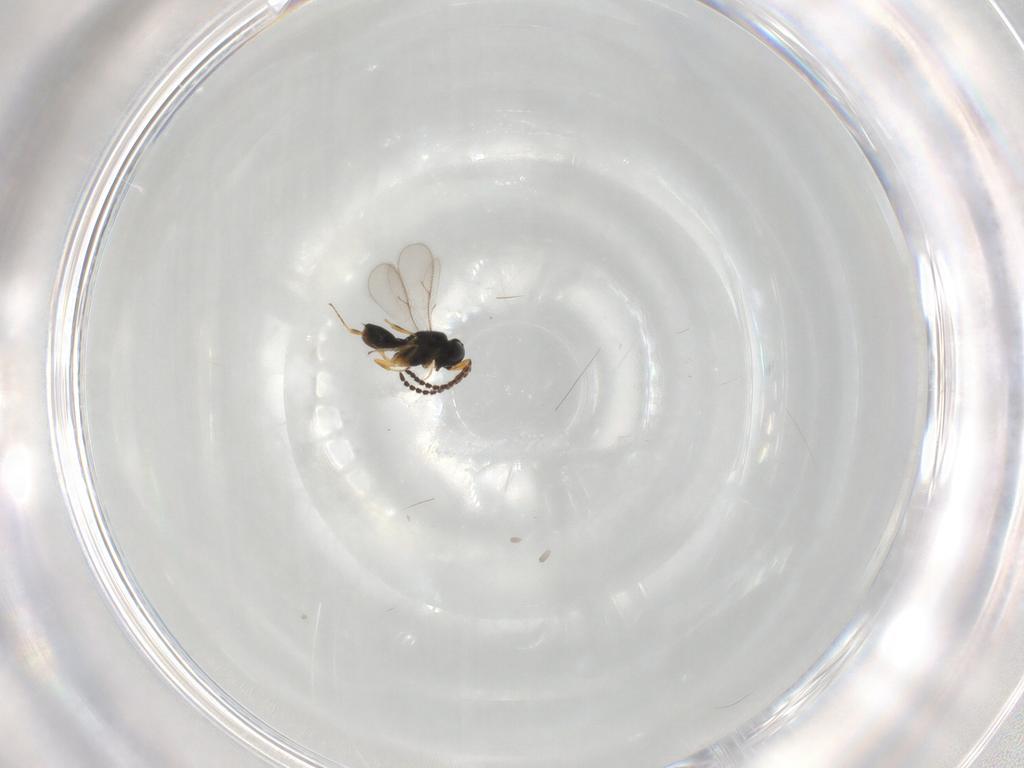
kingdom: Animalia
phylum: Arthropoda
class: Insecta
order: Hymenoptera
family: Scelionidae
